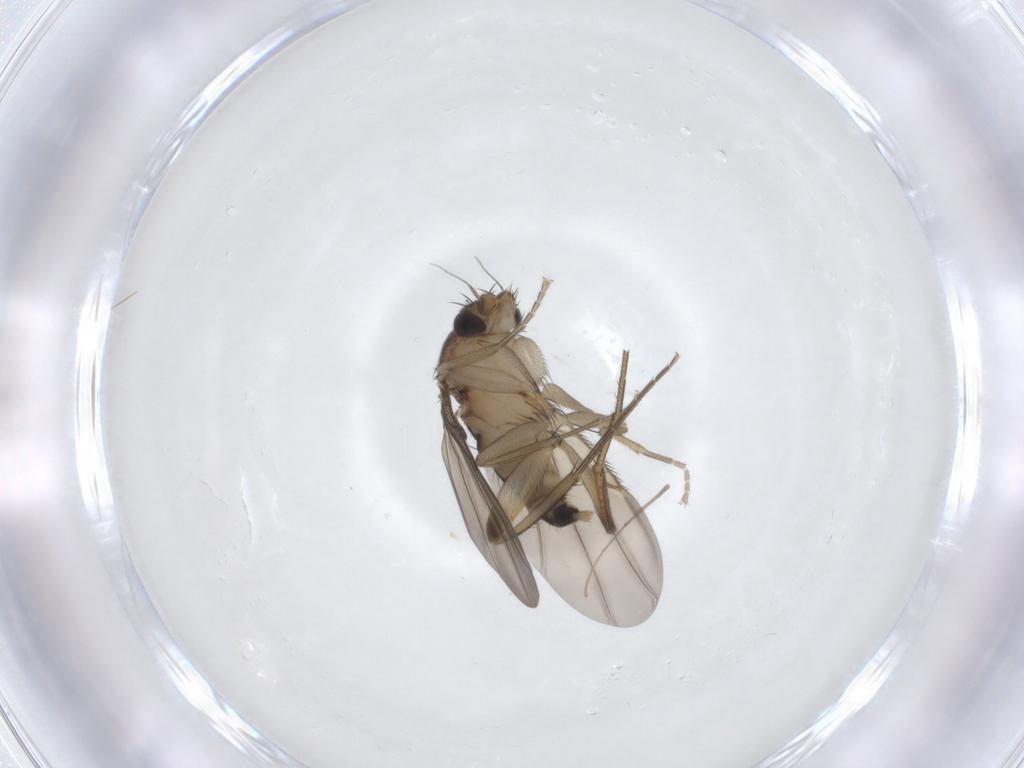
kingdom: Animalia
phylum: Arthropoda
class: Insecta
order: Diptera
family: Phoridae
